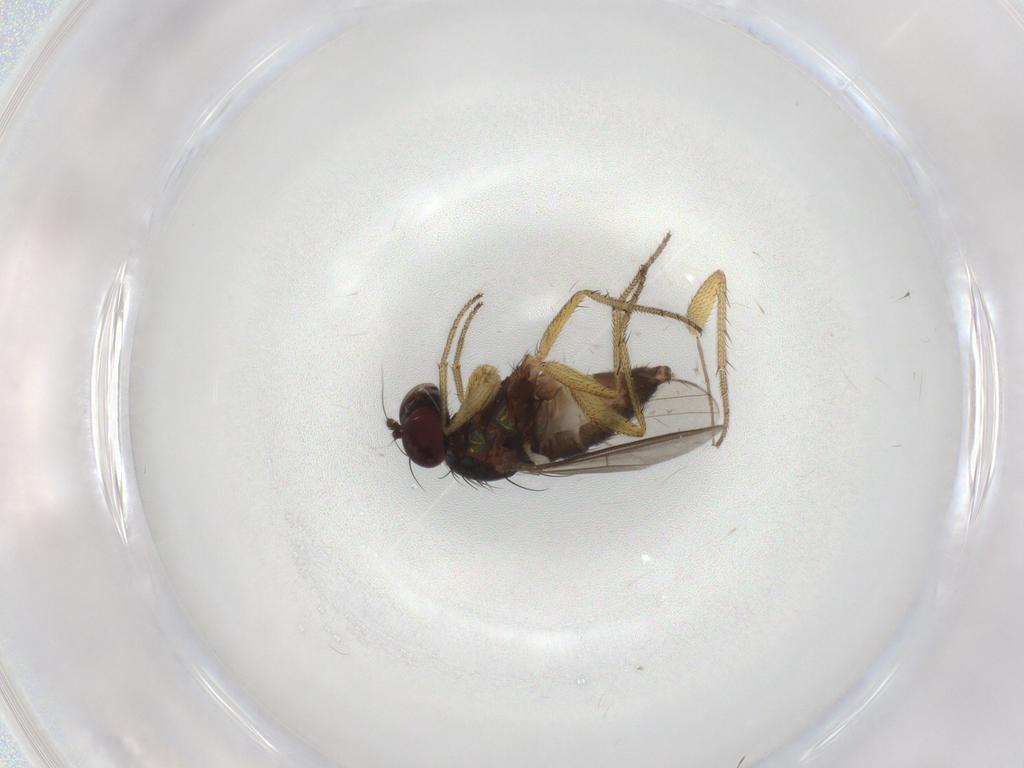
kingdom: Animalia
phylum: Arthropoda
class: Insecta
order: Diptera
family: Dolichopodidae
